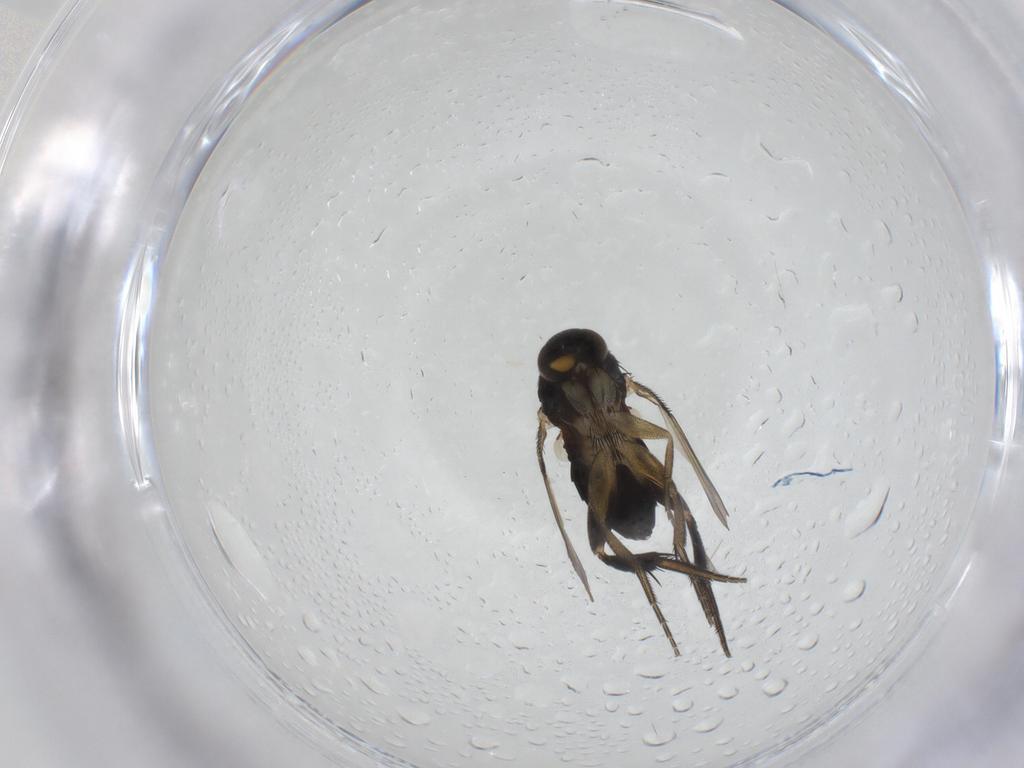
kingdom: Animalia
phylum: Arthropoda
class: Insecta
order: Diptera
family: Phoridae
